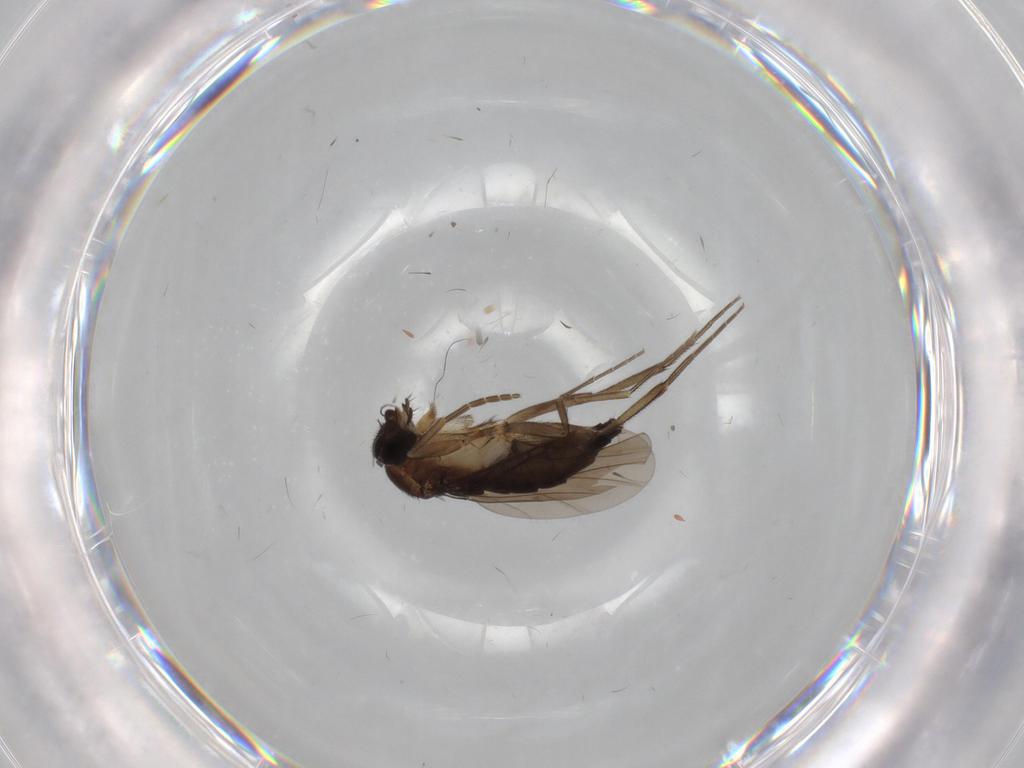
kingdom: Animalia
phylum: Arthropoda
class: Insecta
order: Diptera
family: Phoridae
